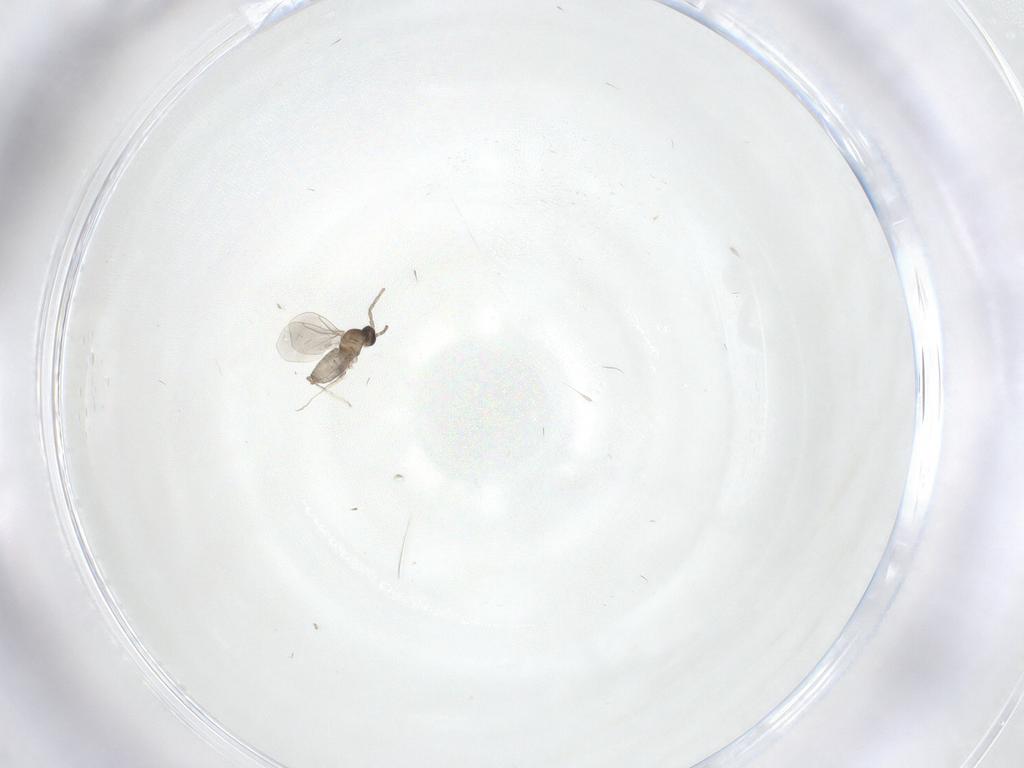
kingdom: Animalia
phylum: Arthropoda
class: Insecta
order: Diptera
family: Cecidomyiidae
